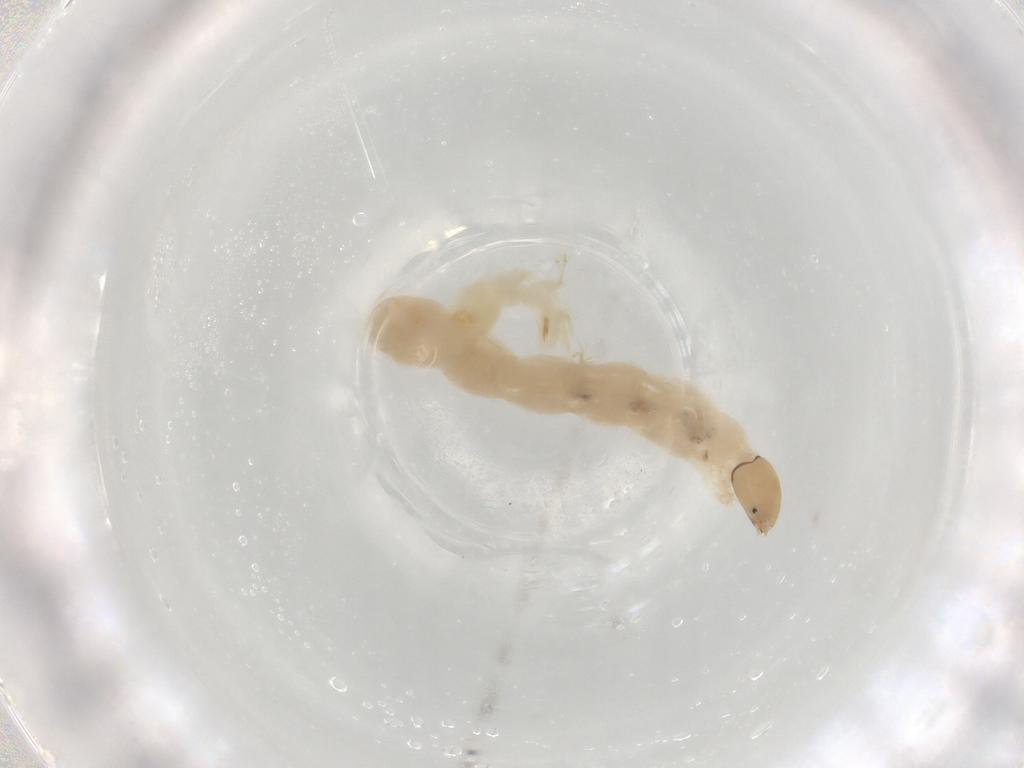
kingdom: Animalia
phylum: Arthropoda
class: Insecta
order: Diptera
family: Chironomidae
